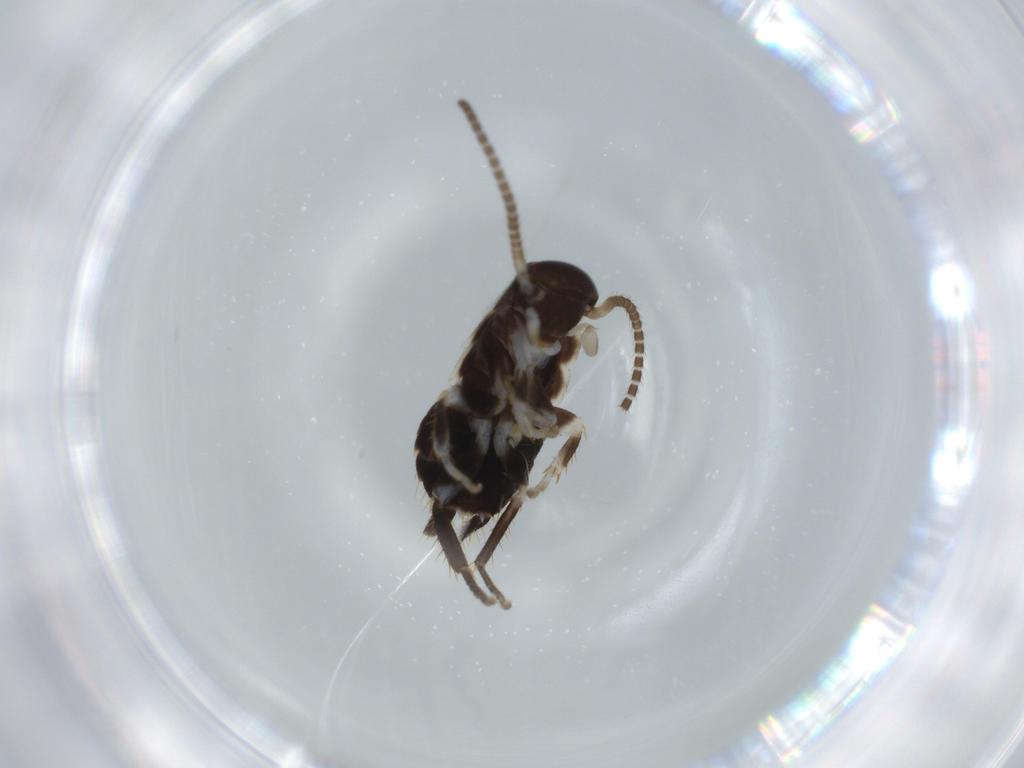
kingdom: Animalia
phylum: Arthropoda
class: Insecta
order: Blattodea
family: Ectobiidae
